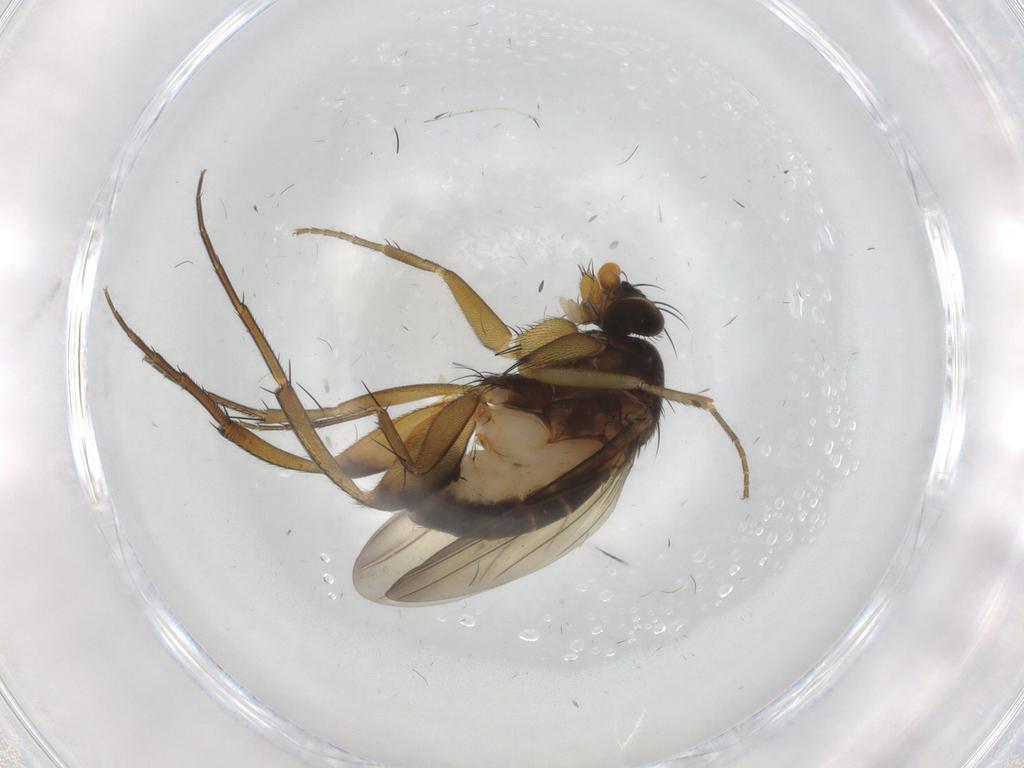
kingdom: Animalia
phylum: Arthropoda
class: Insecta
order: Diptera
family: Phoridae
